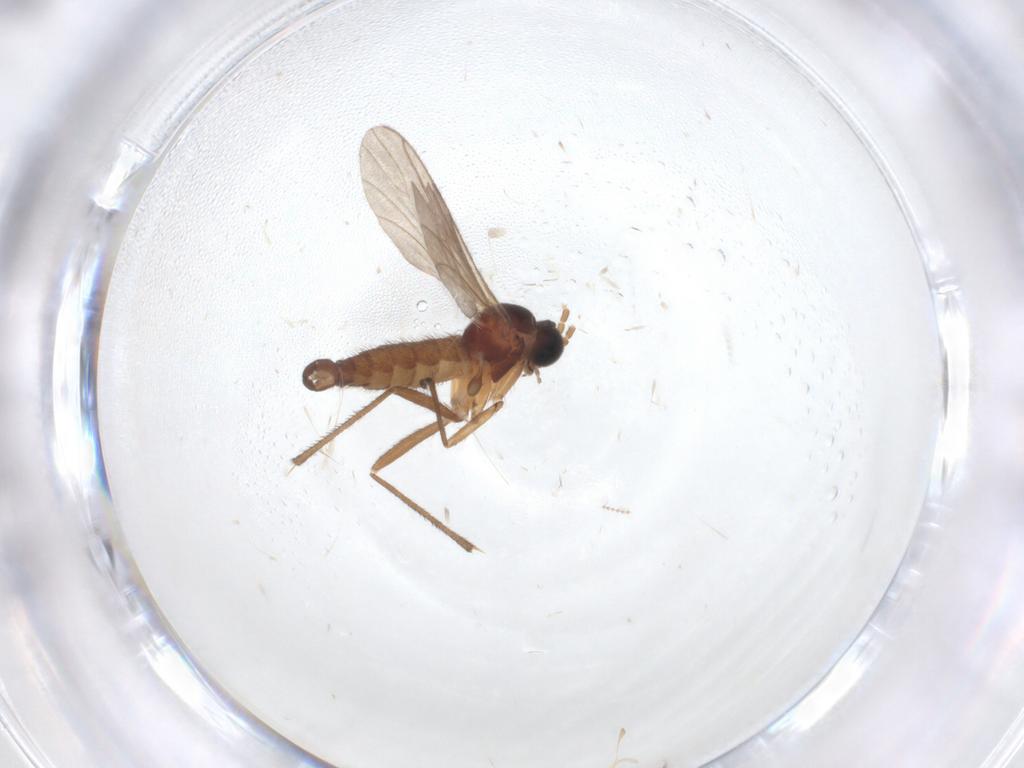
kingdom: Animalia
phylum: Arthropoda
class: Insecta
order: Diptera
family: Sciaridae
